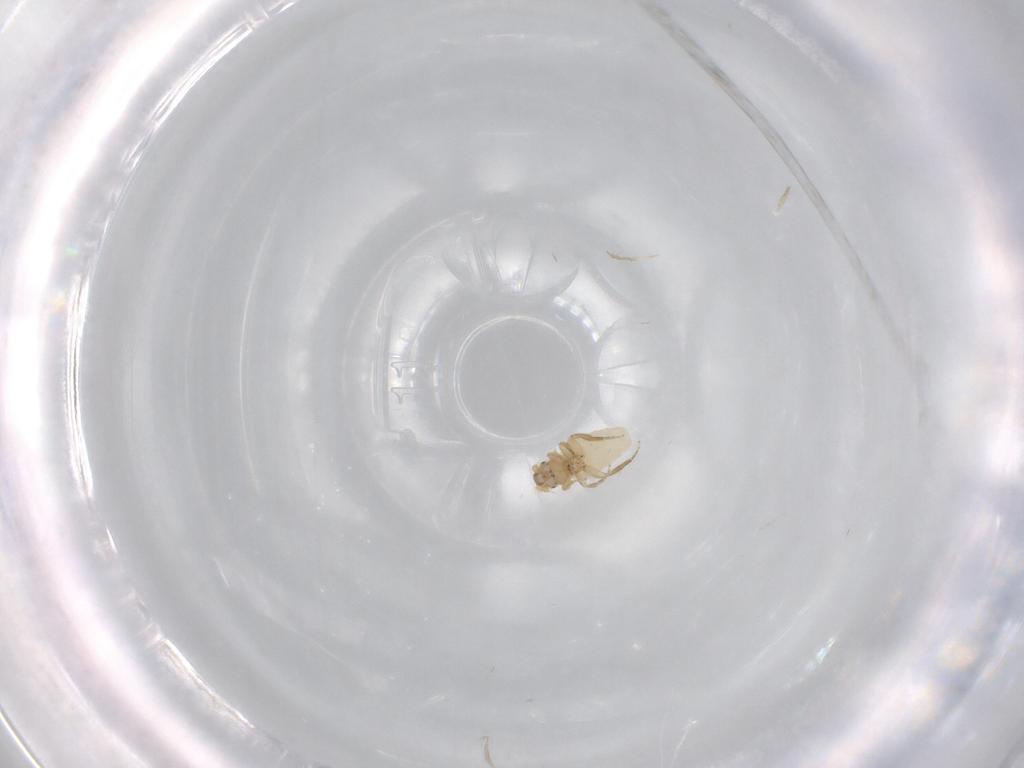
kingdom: Animalia
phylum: Arthropoda
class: Insecta
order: Diptera
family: Phoridae
